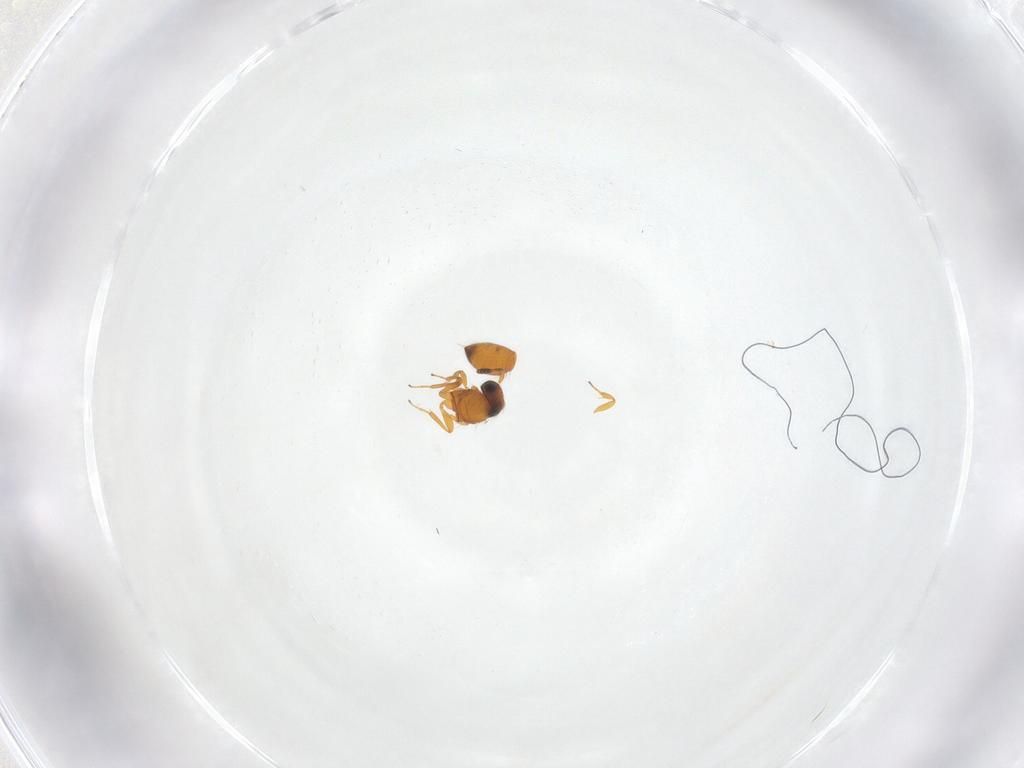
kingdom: Animalia
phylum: Arthropoda
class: Insecta
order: Hymenoptera
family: Scelionidae
